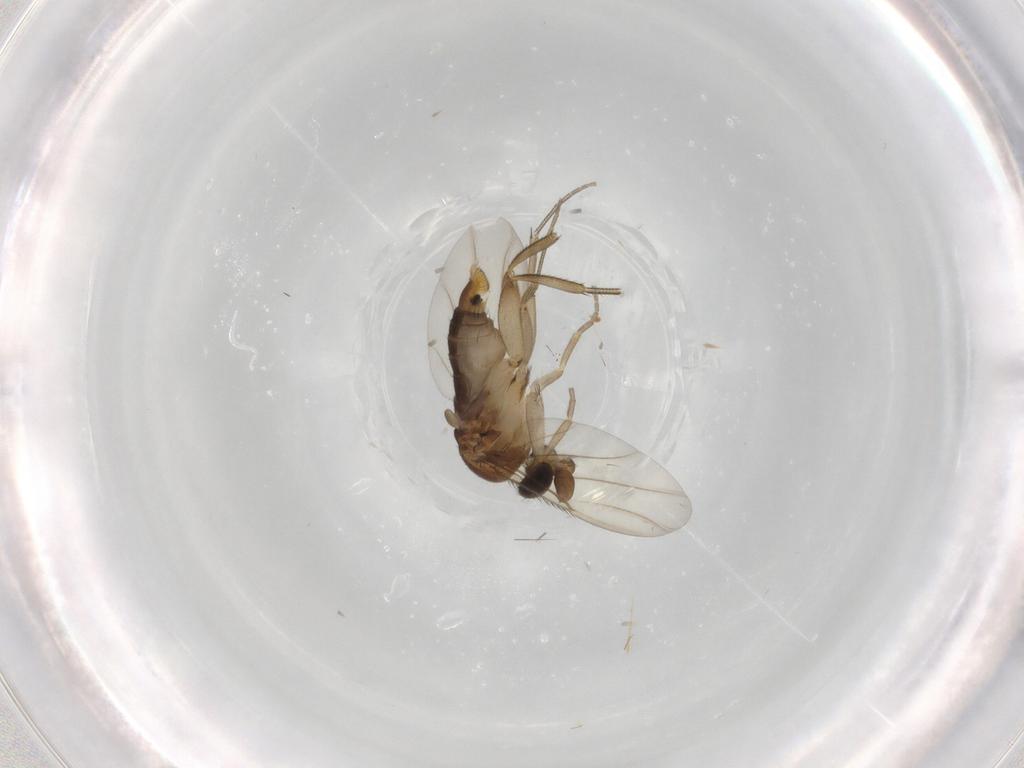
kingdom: Animalia
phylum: Arthropoda
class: Insecta
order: Diptera
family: Phoridae
